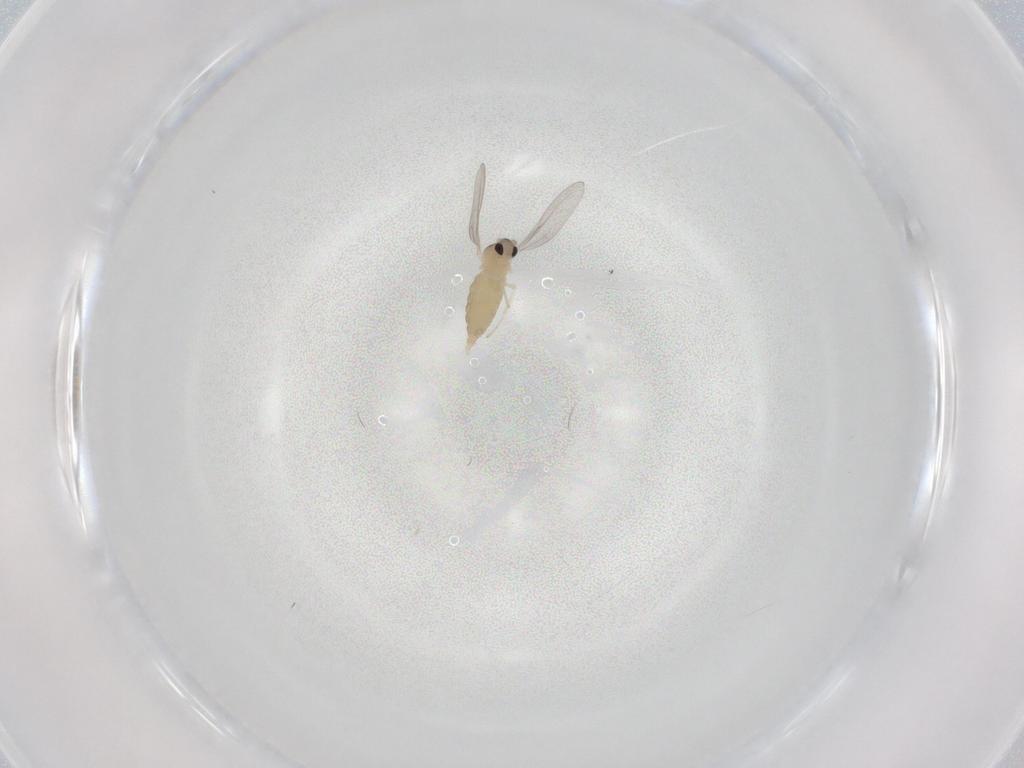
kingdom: Animalia
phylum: Arthropoda
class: Insecta
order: Diptera
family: Cecidomyiidae
